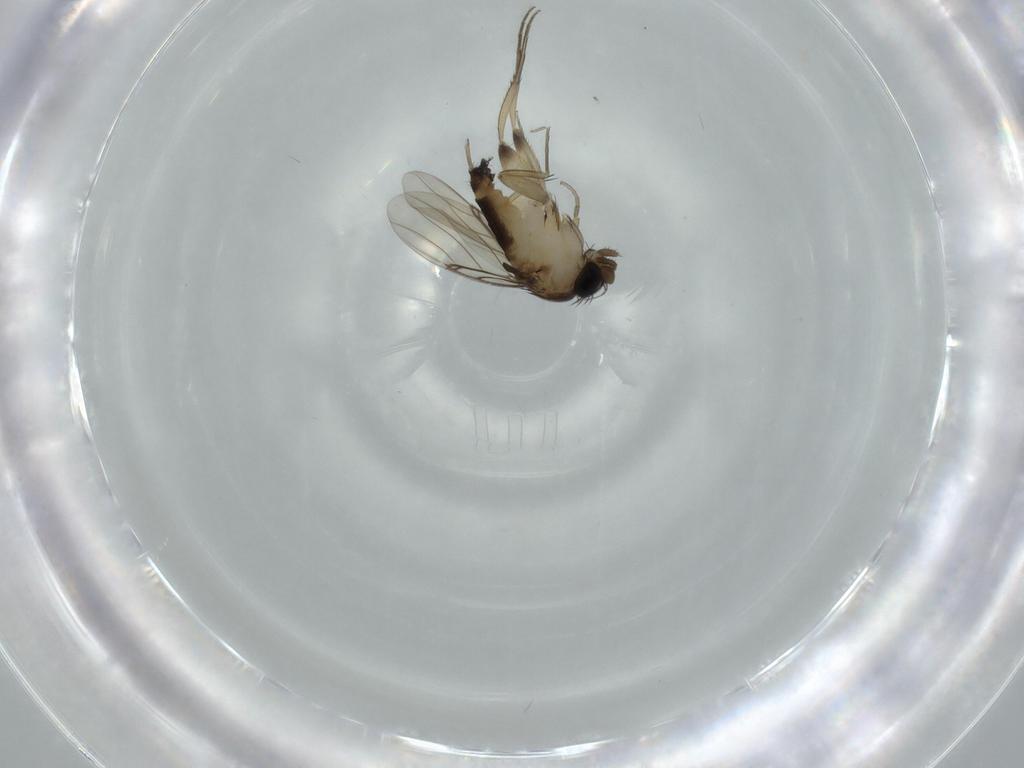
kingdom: Animalia
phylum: Arthropoda
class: Insecta
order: Diptera
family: Phoridae
